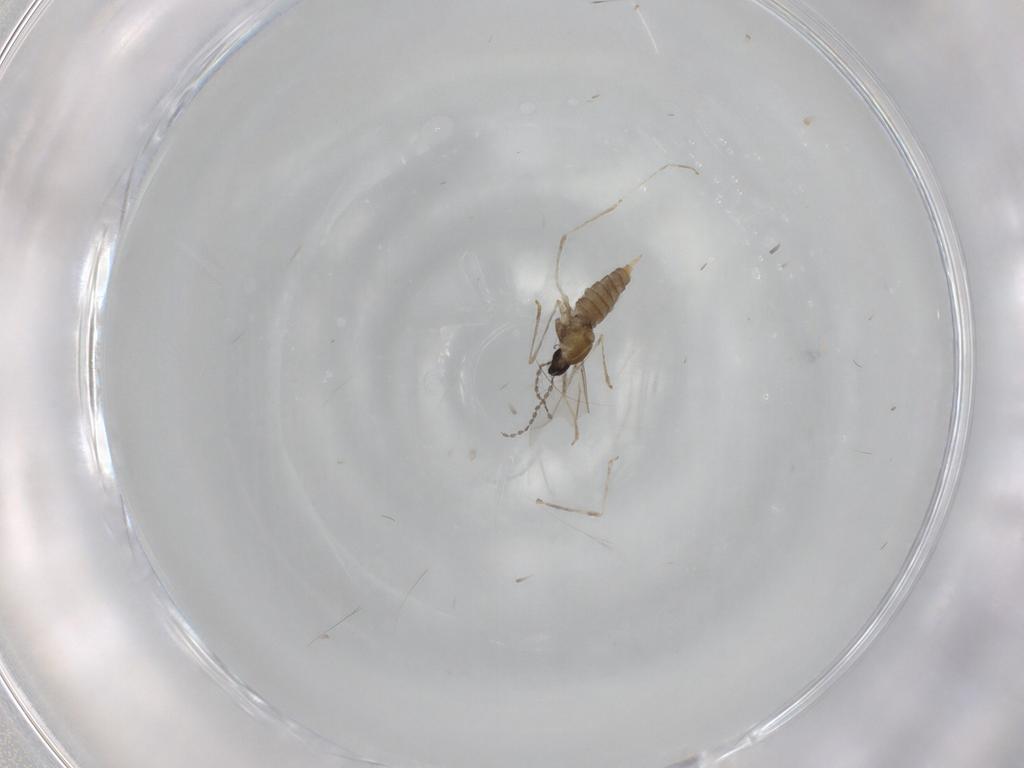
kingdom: Animalia
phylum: Arthropoda
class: Insecta
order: Diptera
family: Cecidomyiidae
